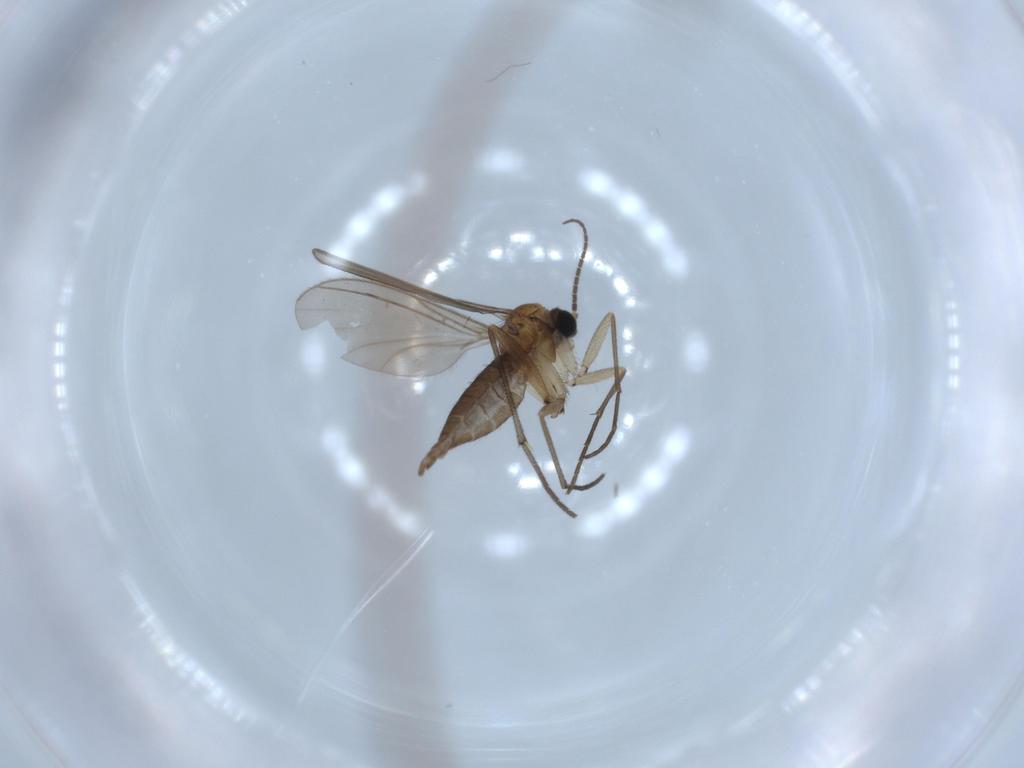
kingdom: Animalia
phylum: Arthropoda
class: Insecta
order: Diptera
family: Sciaridae
